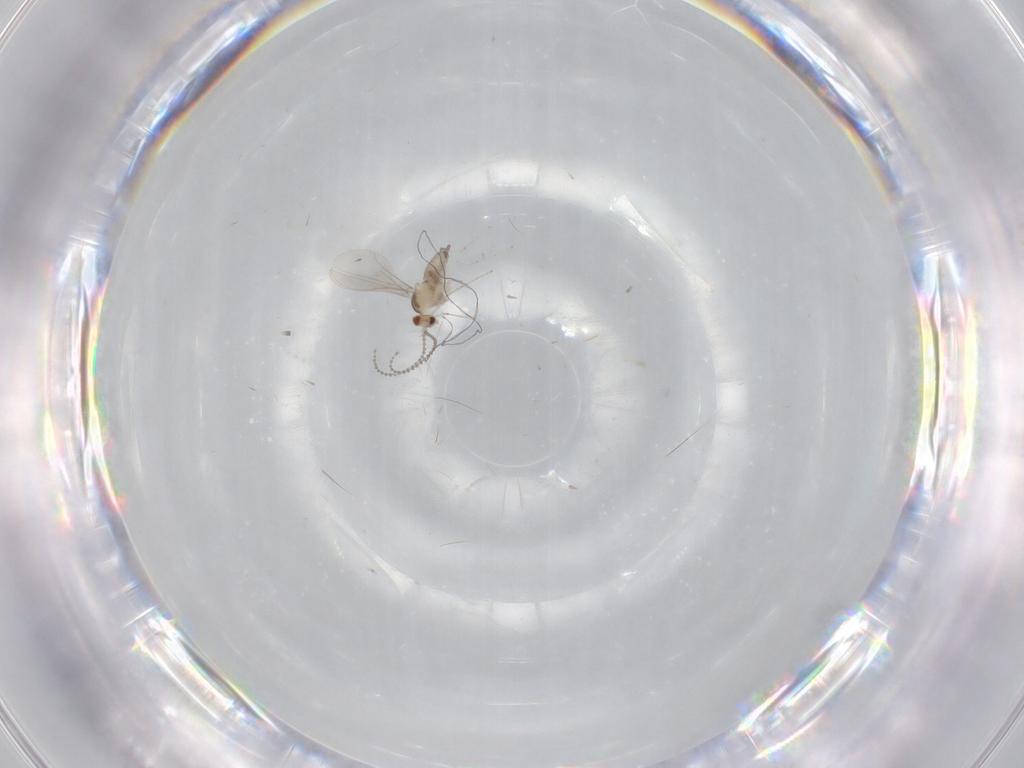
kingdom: Animalia
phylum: Arthropoda
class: Insecta
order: Diptera
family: Cecidomyiidae
